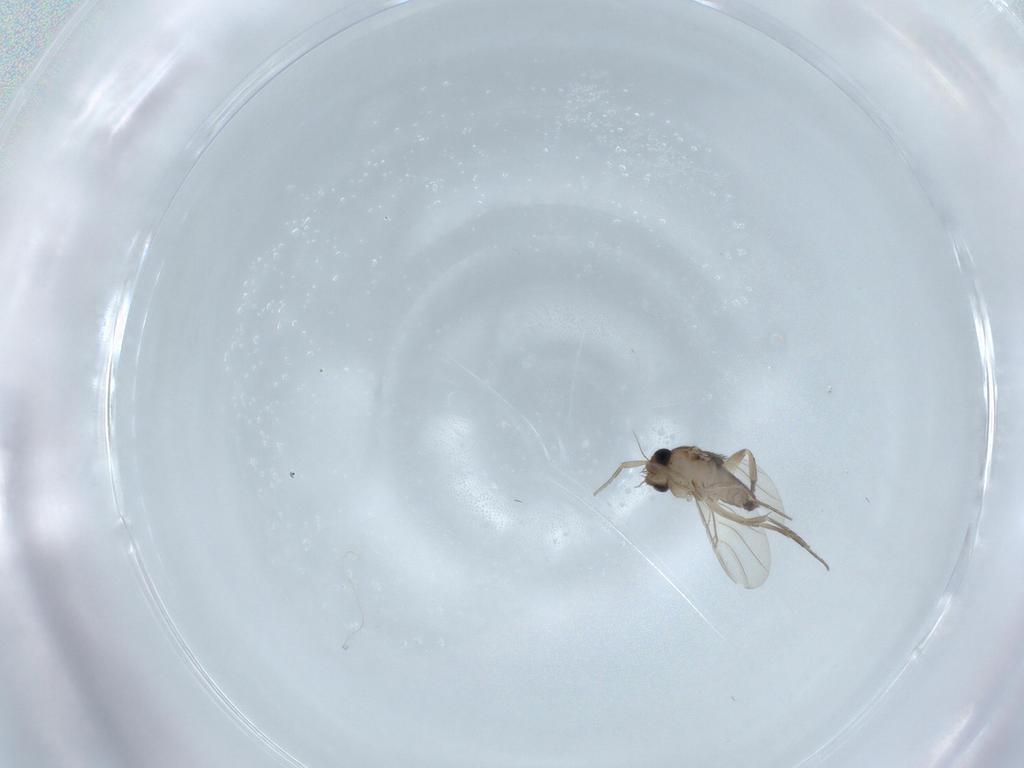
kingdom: Animalia
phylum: Arthropoda
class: Insecta
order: Diptera
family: Phoridae
